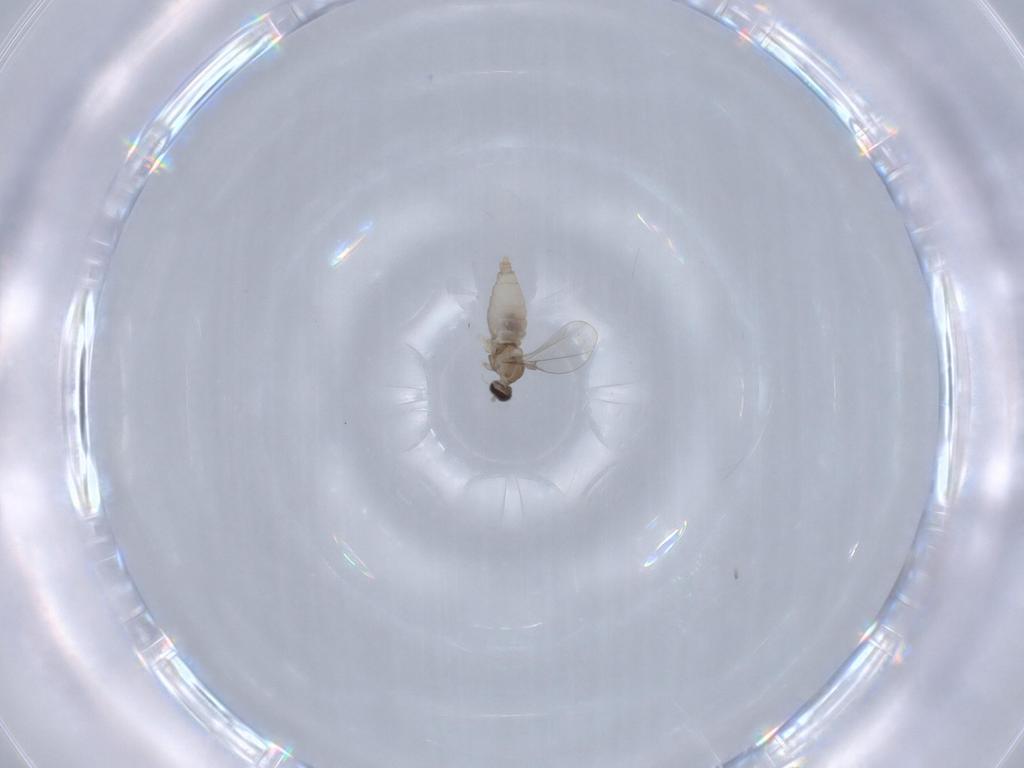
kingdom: Animalia
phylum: Arthropoda
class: Insecta
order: Diptera
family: Cecidomyiidae
